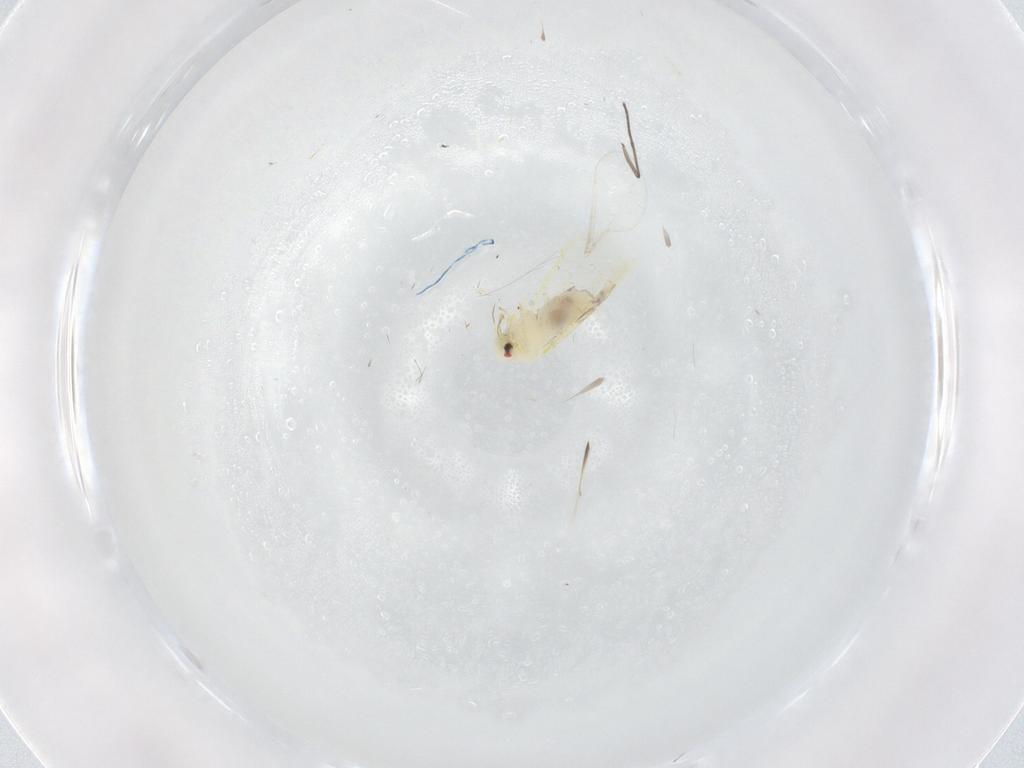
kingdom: Animalia
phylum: Arthropoda
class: Insecta
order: Hemiptera
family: Aleyrodidae
